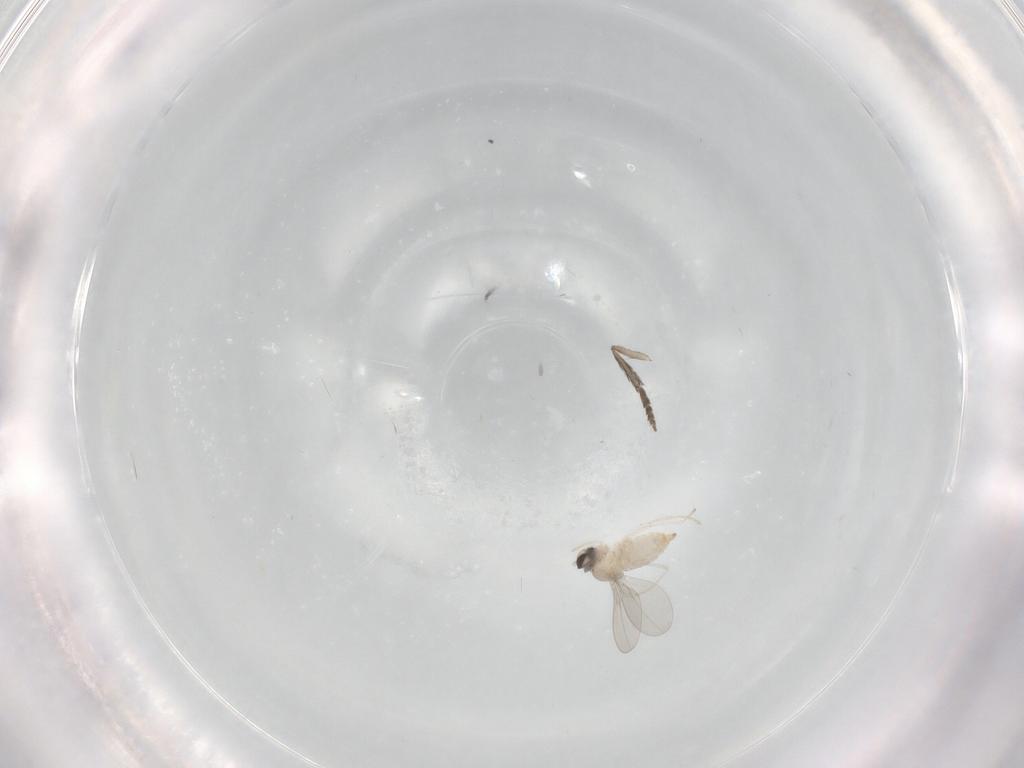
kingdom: Animalia
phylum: Arthropoda
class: Insecta
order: Diptera
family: Cecidomyiidae
